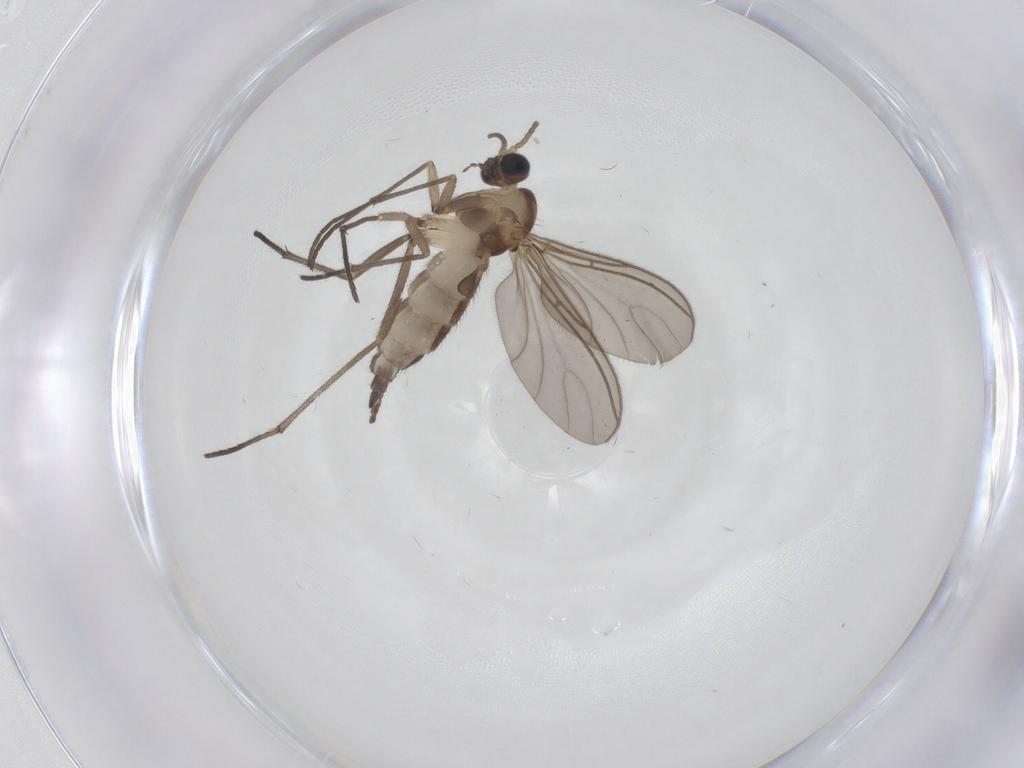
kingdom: Animalia
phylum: Arthropoda
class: Insecta
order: Diptera
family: Sciaridae
